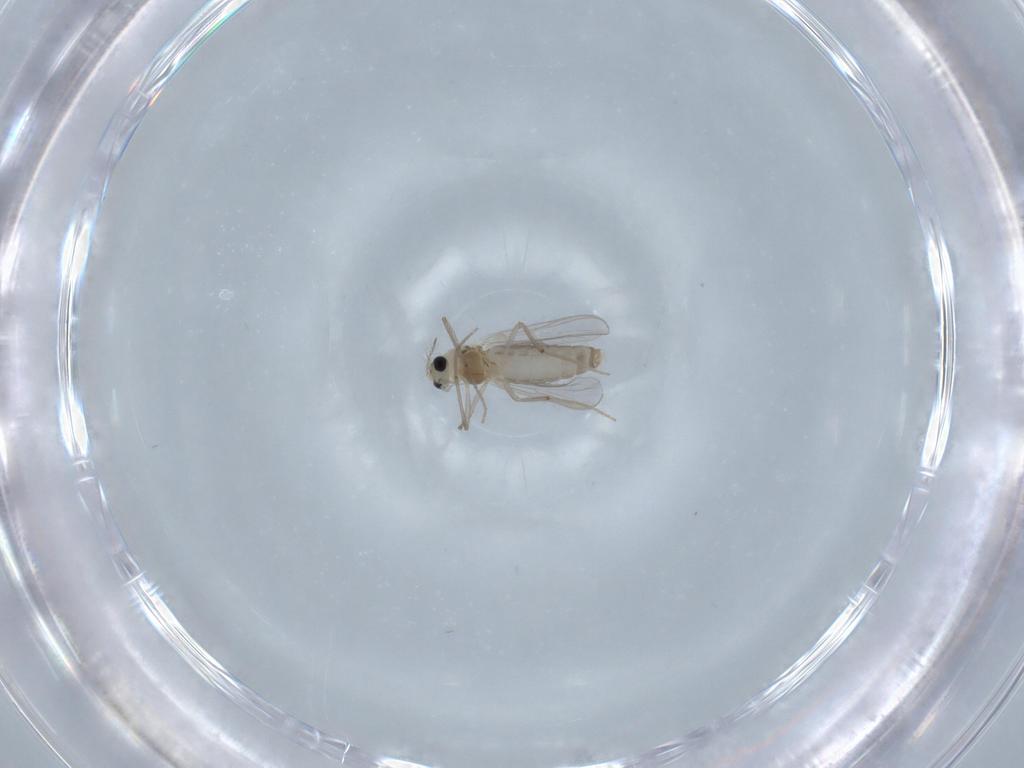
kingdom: Animalia
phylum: Arthropoda
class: Insecta
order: Diptera
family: Chironomidae
